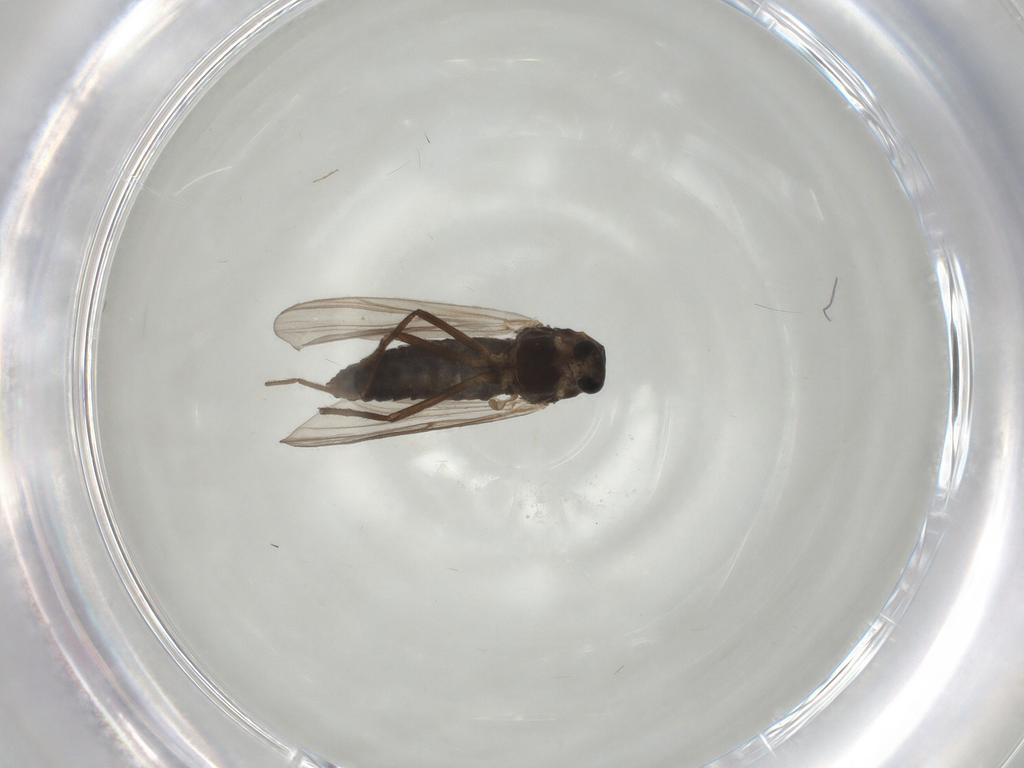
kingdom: Animalia
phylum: Arthropoda
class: Insecta
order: Diptera
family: Chironomidae
